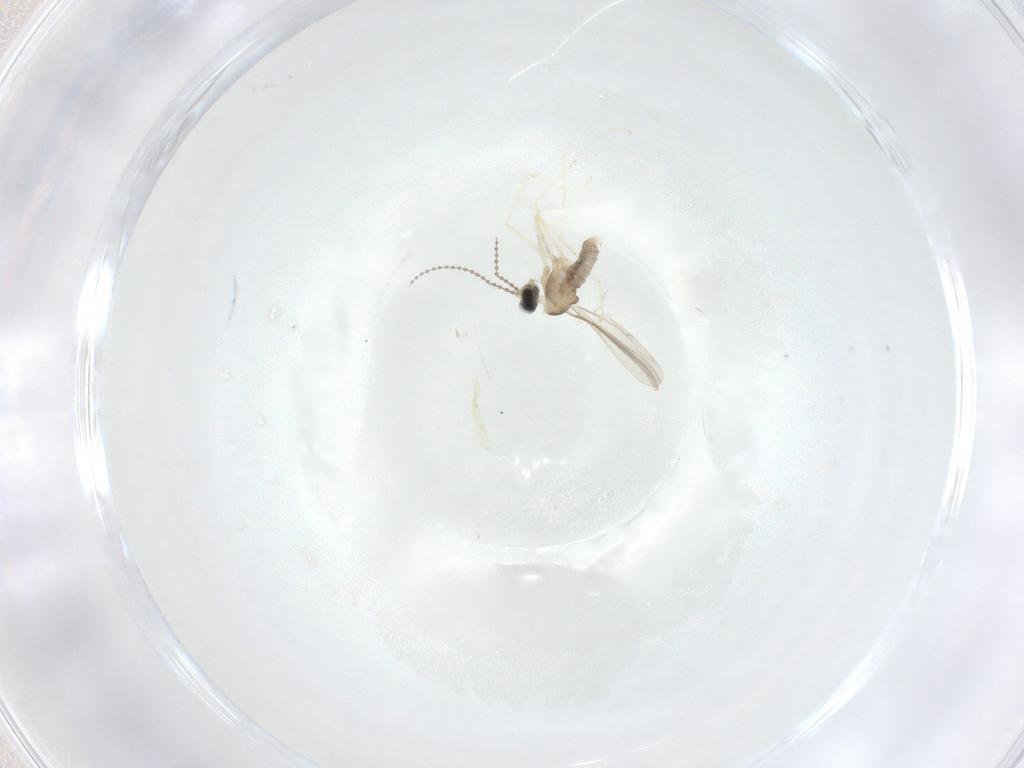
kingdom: Animalia
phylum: Arthropoda
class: Insecta
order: Diptera
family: Cecidomyiidae
